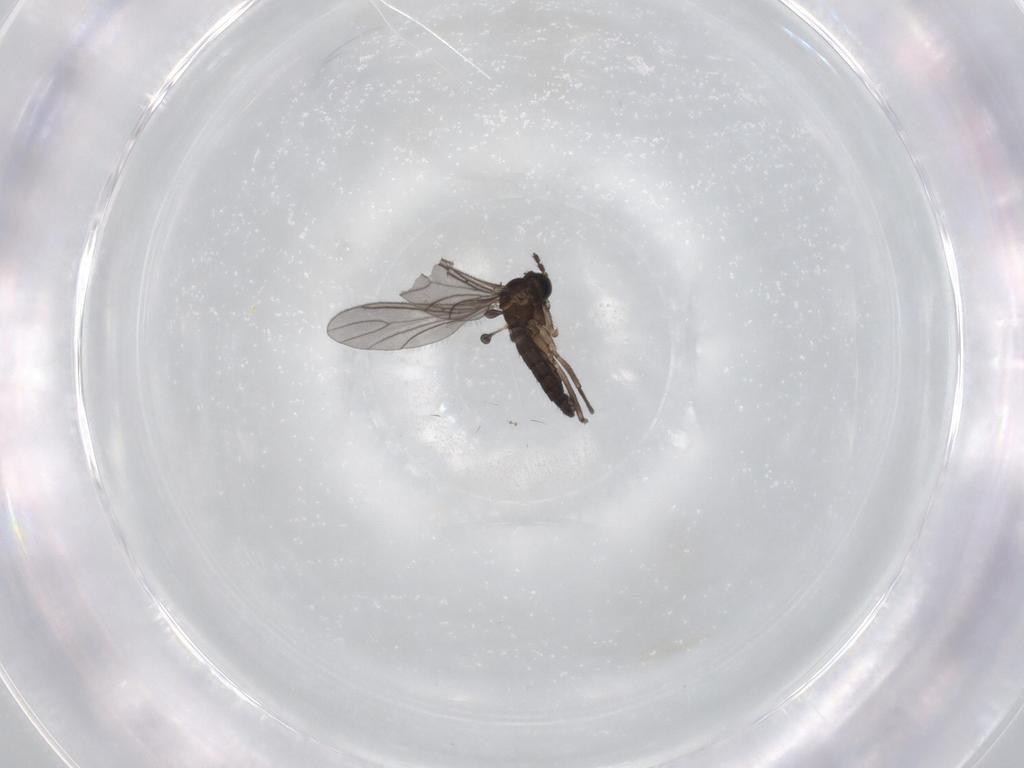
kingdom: Animalia
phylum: Arthropoda
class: Insecta
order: Diptera
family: Sciaridae
